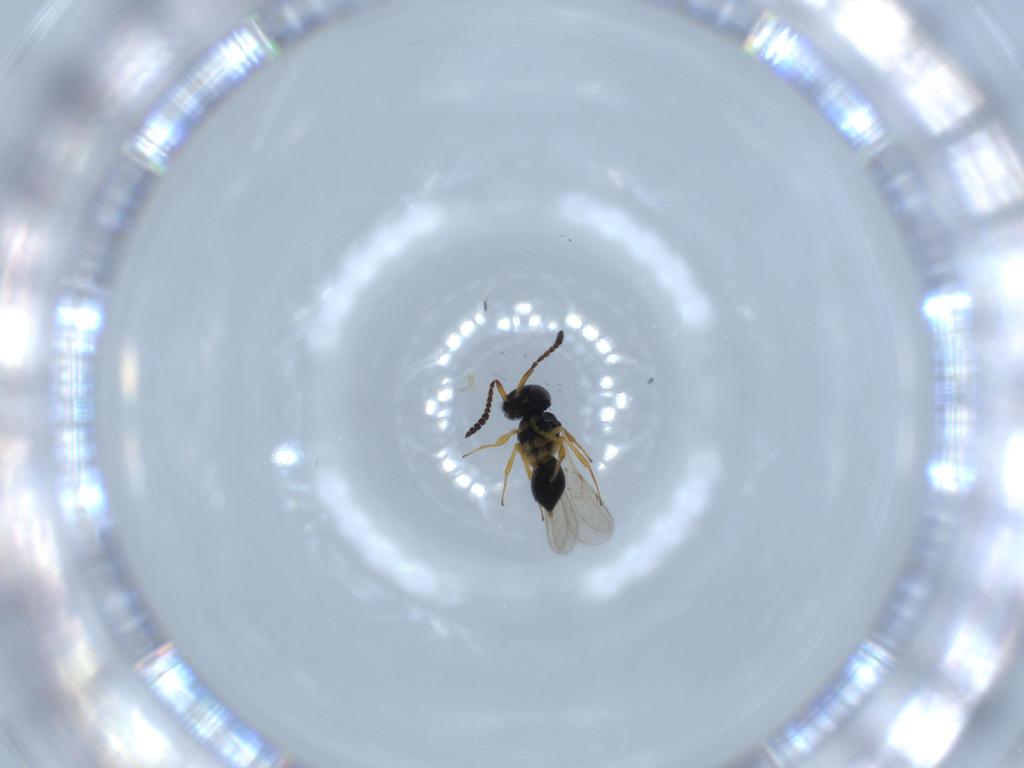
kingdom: Animalia
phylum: Arthropoda
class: Insecta
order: Hymenoptera
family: Scelionidae
